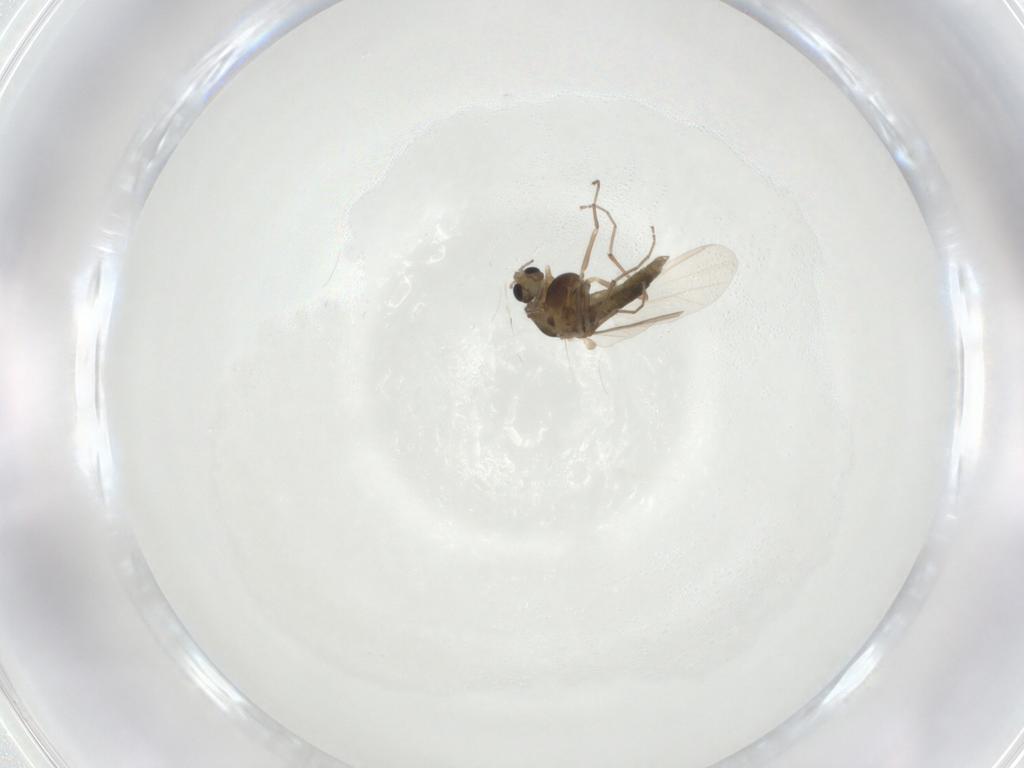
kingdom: Animalia
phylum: Arthropoda
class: Insecta
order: Diptera
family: Chironomidae
